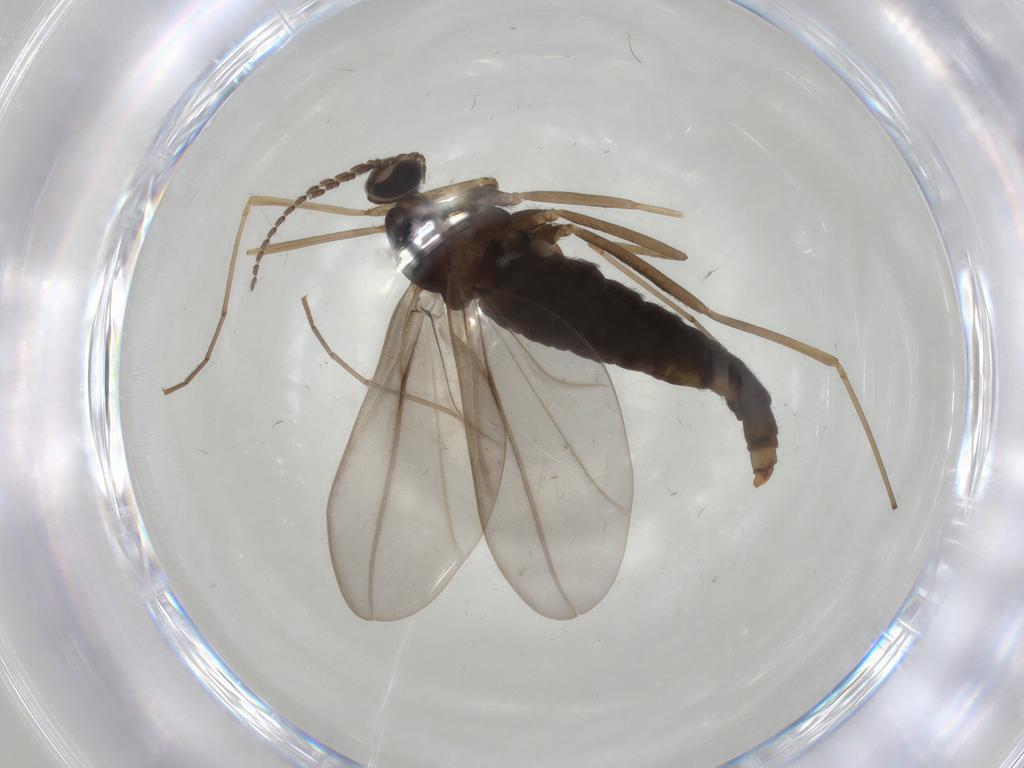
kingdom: Animalia
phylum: Arthropoda
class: Insecta
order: Diptera
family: Cecidomyiidae
